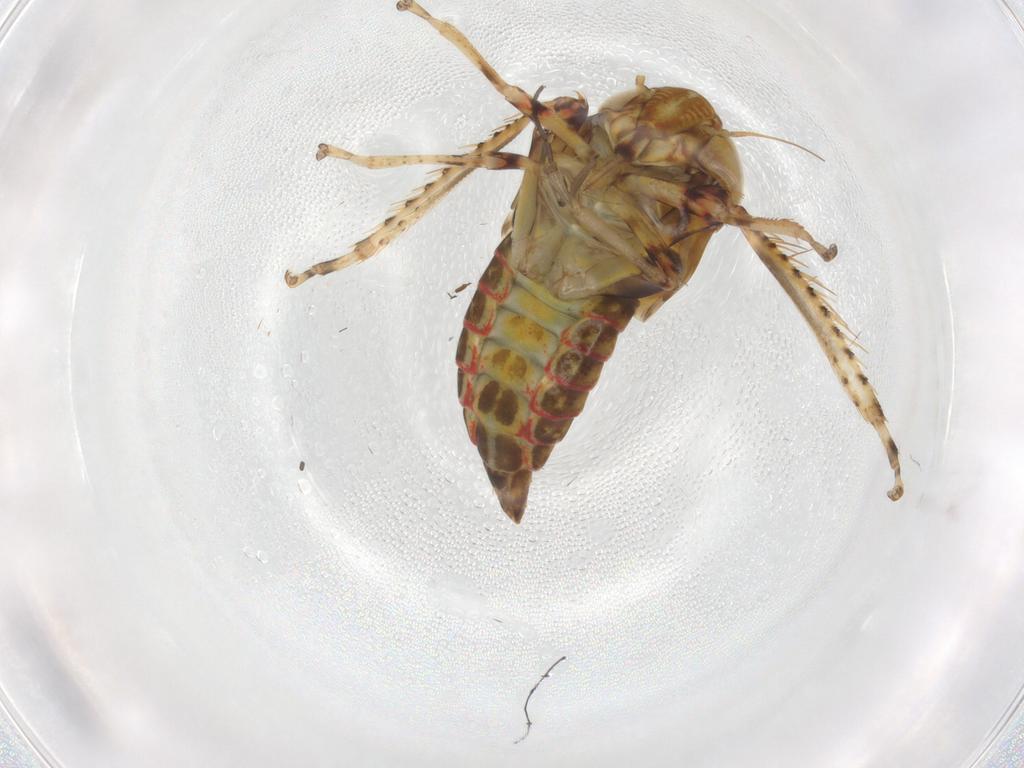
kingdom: Animalia
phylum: Arthropoda
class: Insecta
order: Hemiptera
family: Cicadellidae
